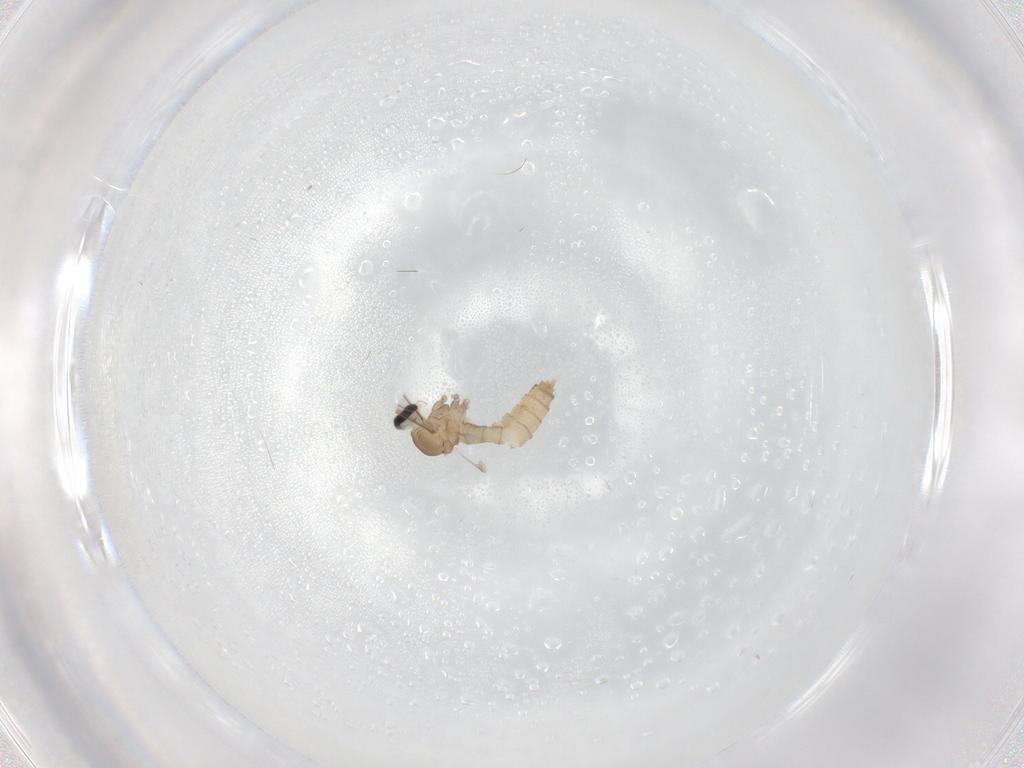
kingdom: Animalia
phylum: Arthropoda
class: Insecta
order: Diptera
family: Cecidomyiidae
